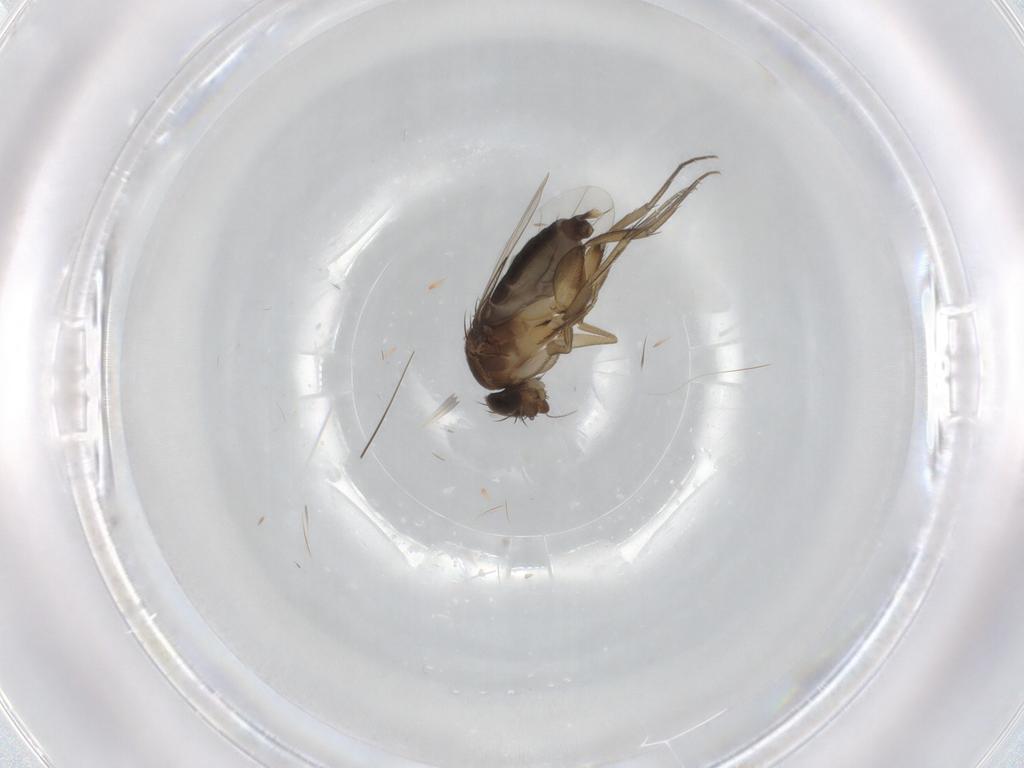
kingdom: Animalia
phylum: Arthropoda
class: Insecta
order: Diptera
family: Phoridae
